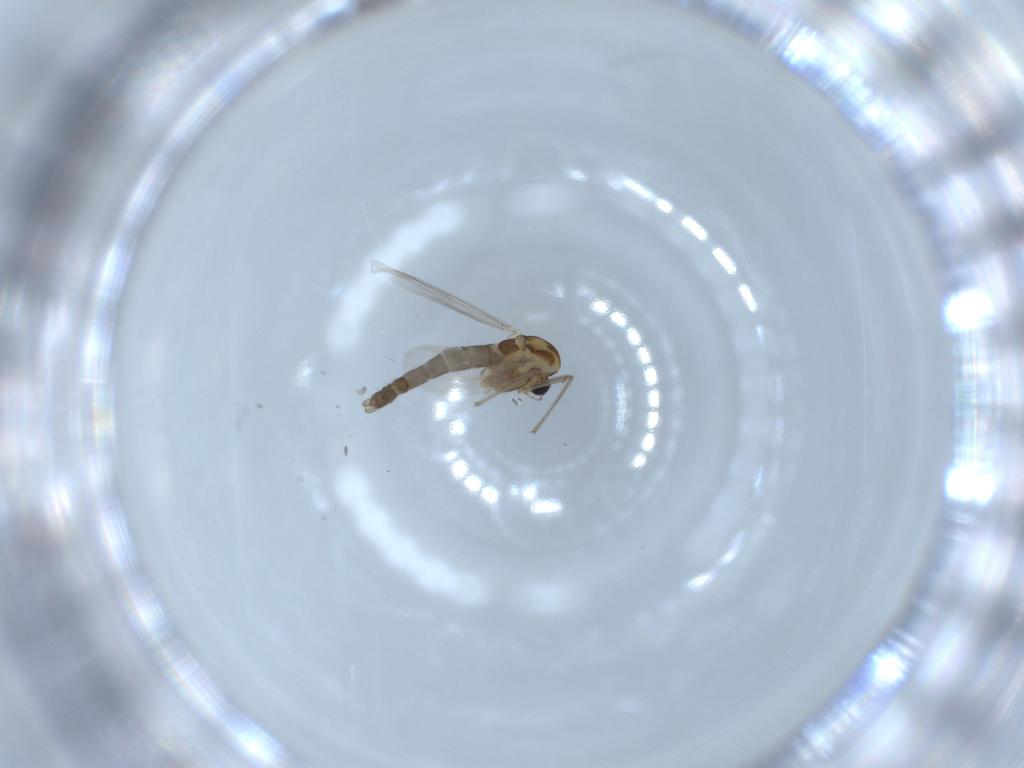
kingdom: Animalia
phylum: Arthropoda
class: Insecta
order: Diptera
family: Chironomidae
